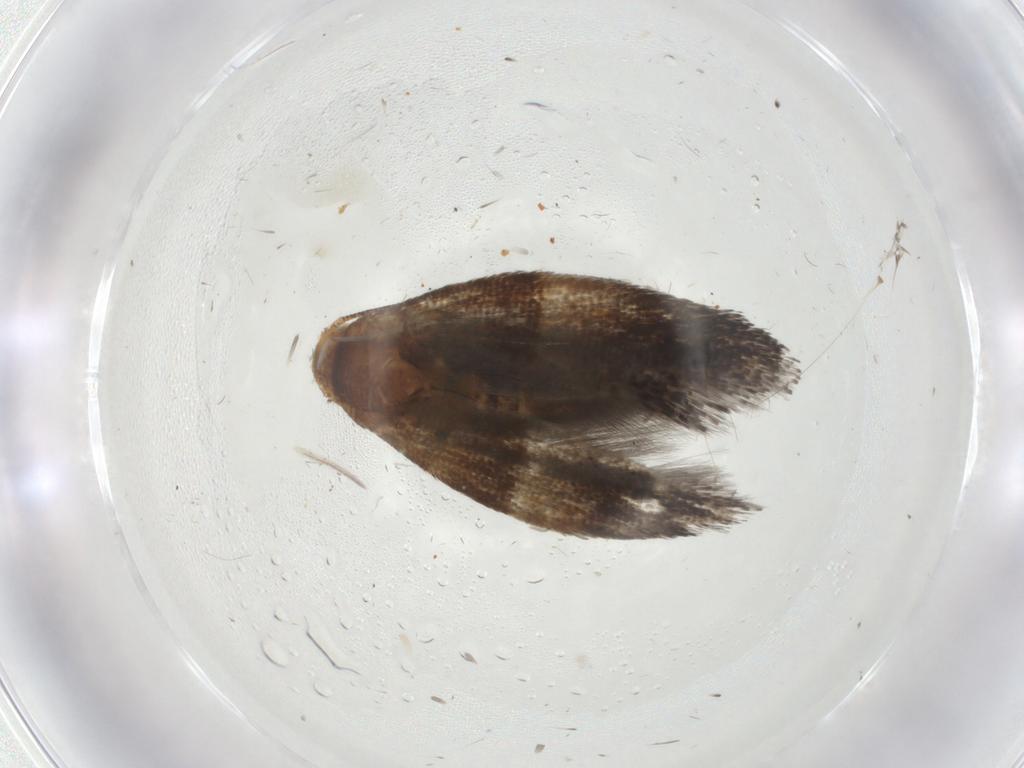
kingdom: Animalia
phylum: Arthropoda
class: Insecta
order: Lepidoptera
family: Gelechiidae
